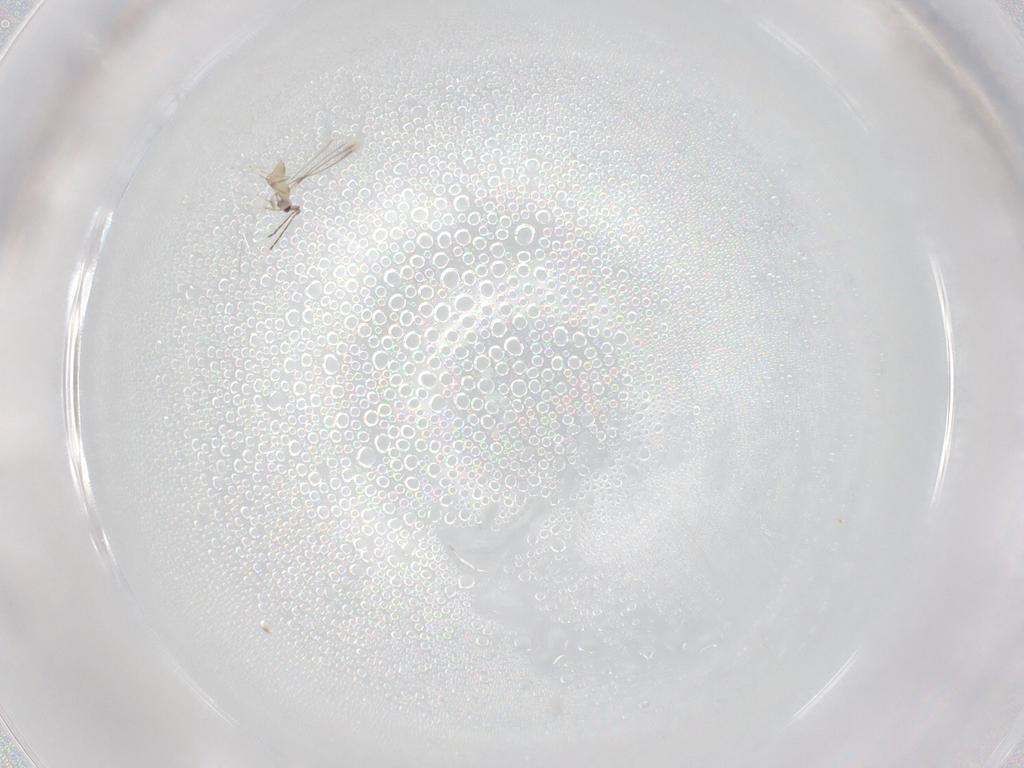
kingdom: Animalia
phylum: Arthropoda
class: Insecta
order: Hymenoptera
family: Mymaridae
